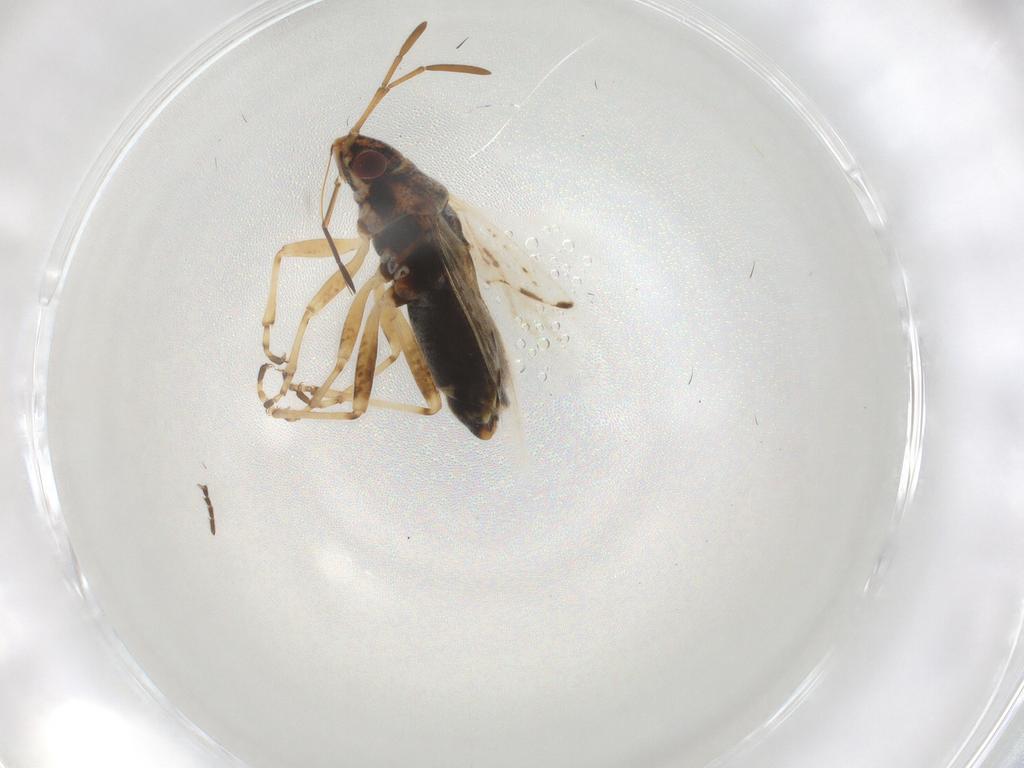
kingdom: Animalia
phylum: Arthropoda
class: Insecta
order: Hemiptera
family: Lygaeidae
